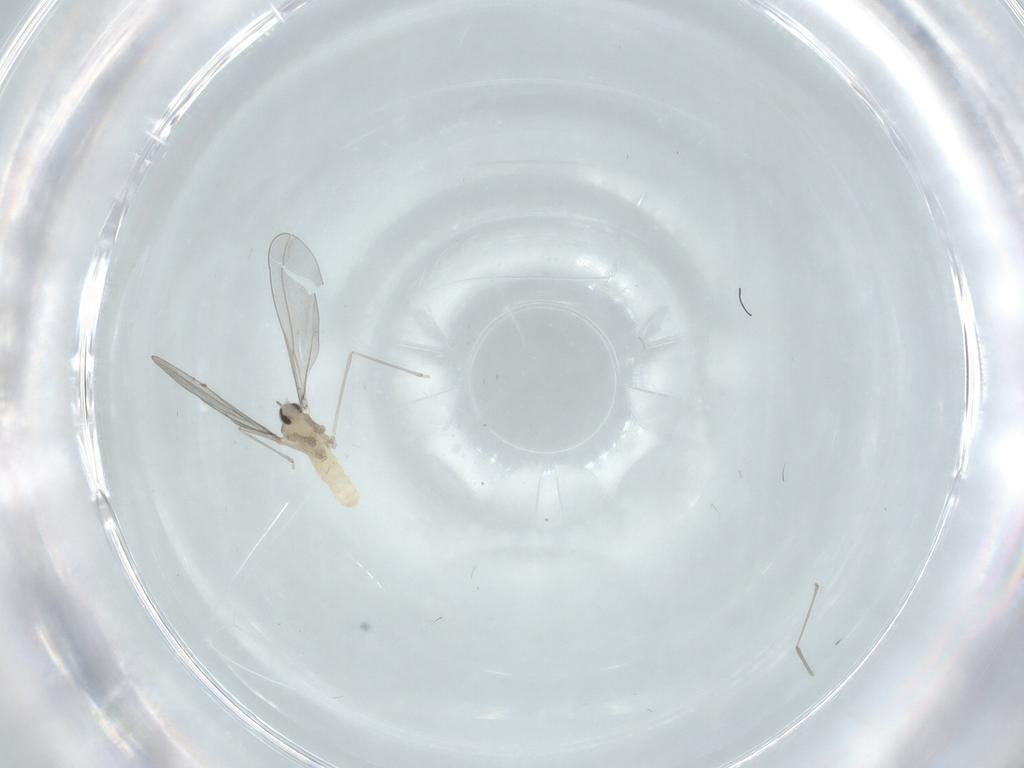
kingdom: Animalia
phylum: Arthropoda
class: Insecta
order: Diptera
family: Cecidomyiidae
